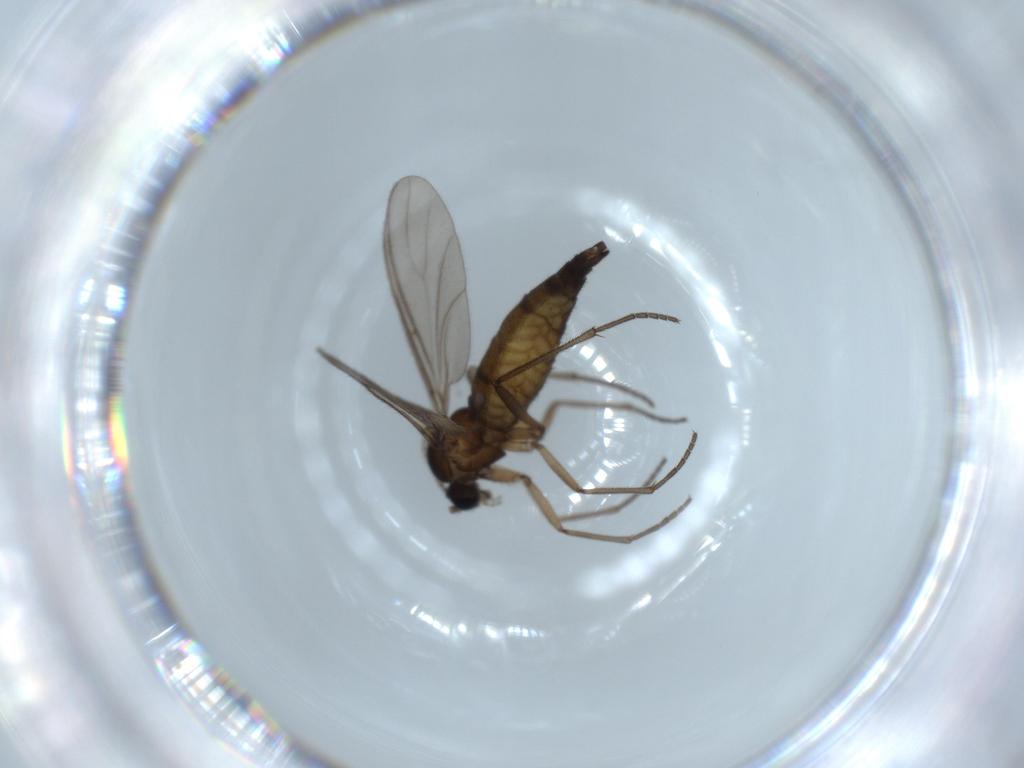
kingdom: Animalia
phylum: Arthropoda
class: Insecta
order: Diptera
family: Sciaridae
